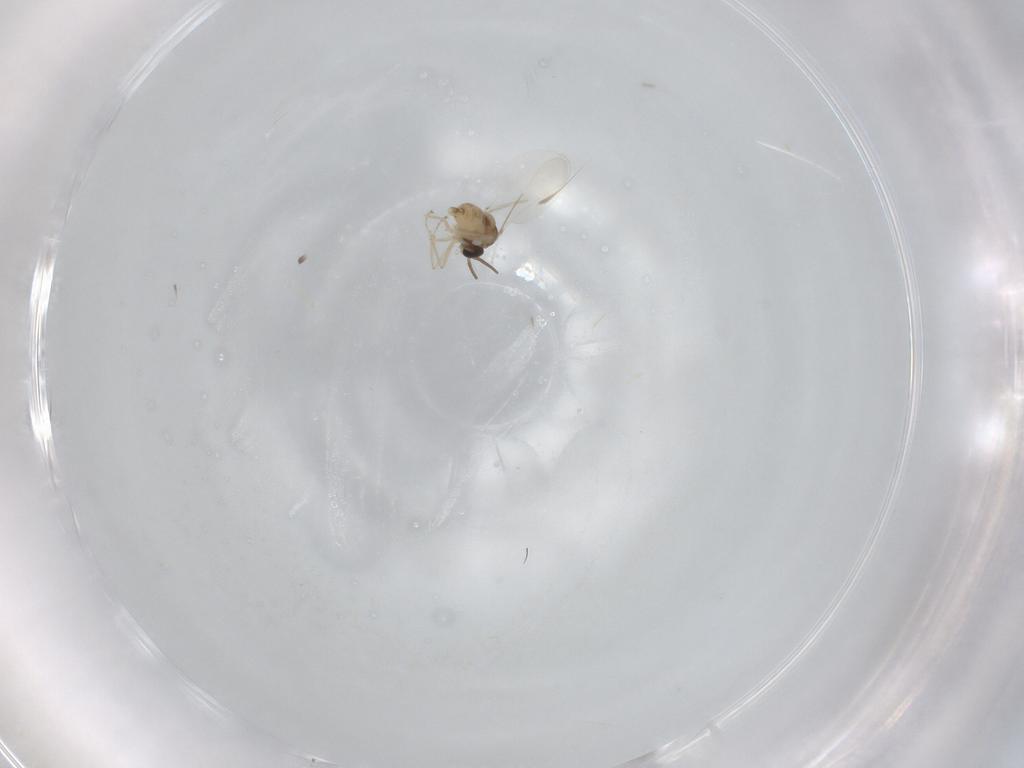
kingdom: Animalia
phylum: Arthropoda
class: Insecta
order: Diptera
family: Cecidomyiidae
